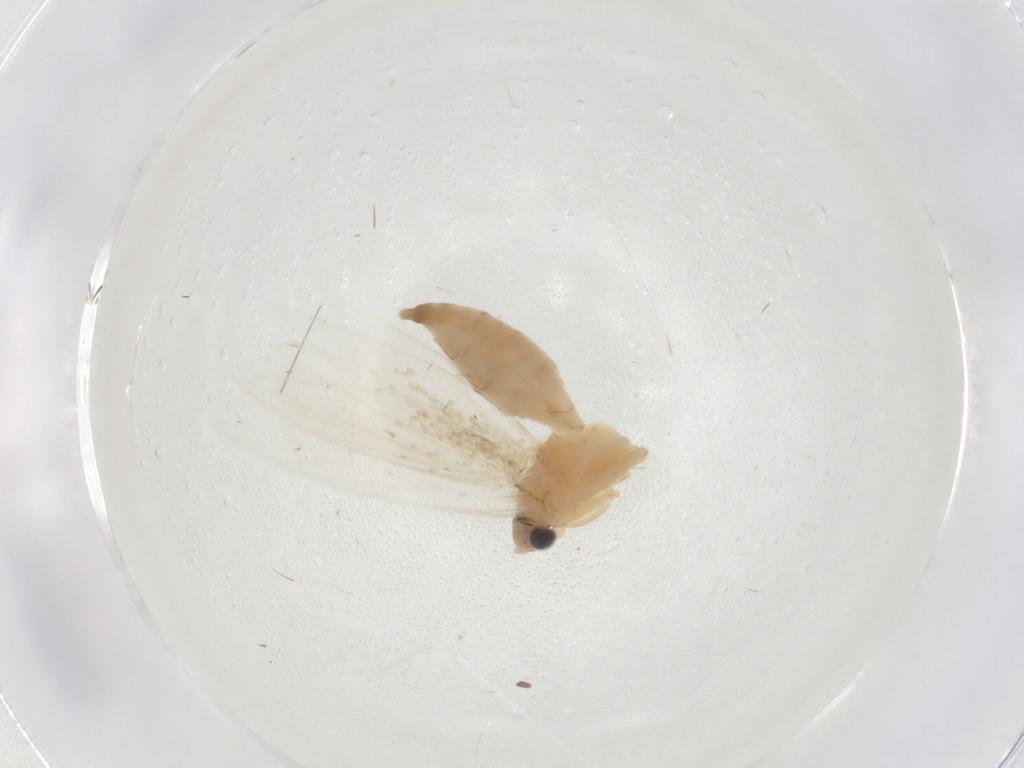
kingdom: Animalia
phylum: Arthropoda
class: Insecta
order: Lepidoptera
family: Tineidae
